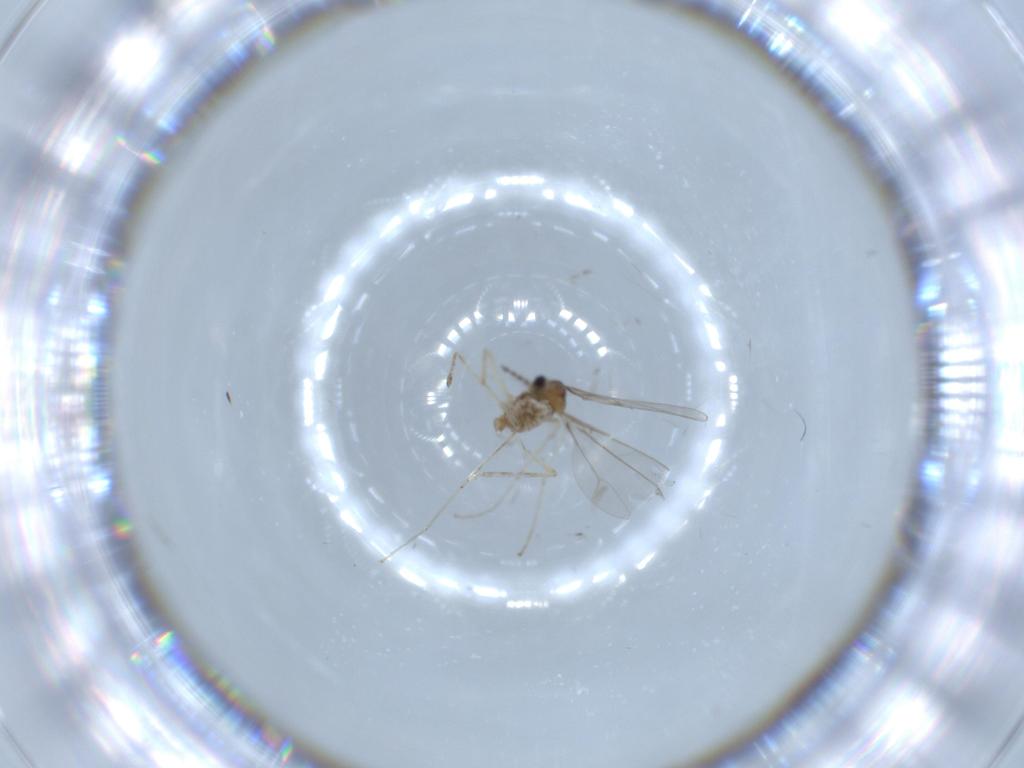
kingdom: Animalia
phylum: Arthropoda
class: Insecta
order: Diptera
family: Cecidomyiidae
